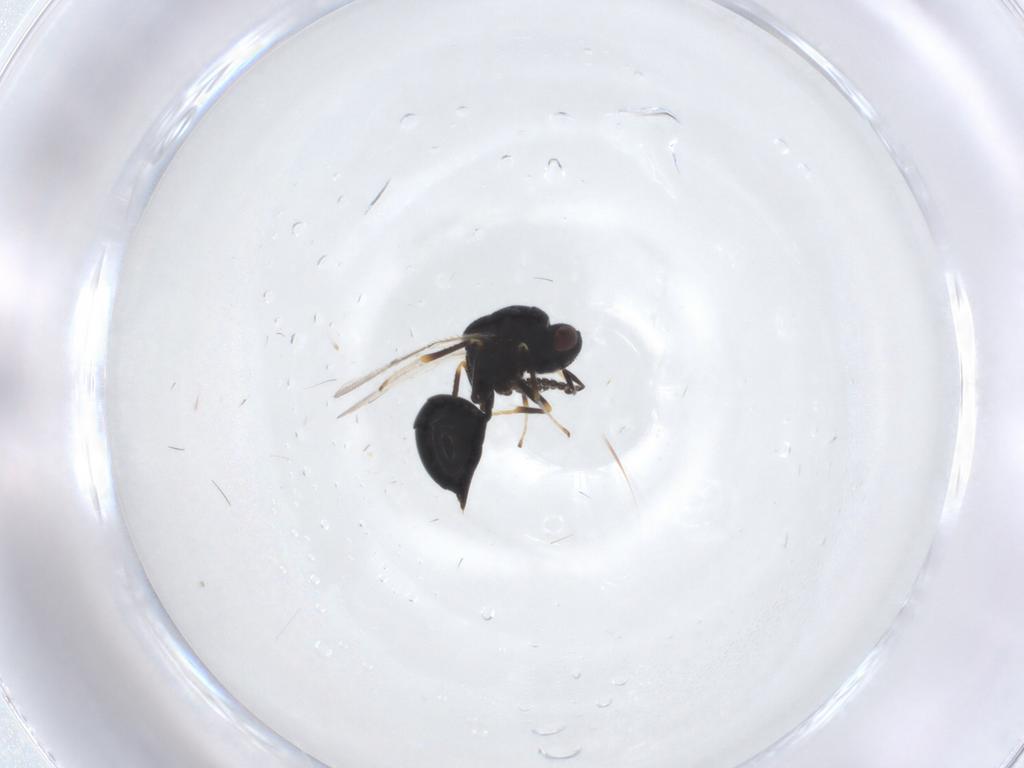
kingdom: Animalia
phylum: Arthropoda
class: Insecta
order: Hymenoptera
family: Eurytomidae
